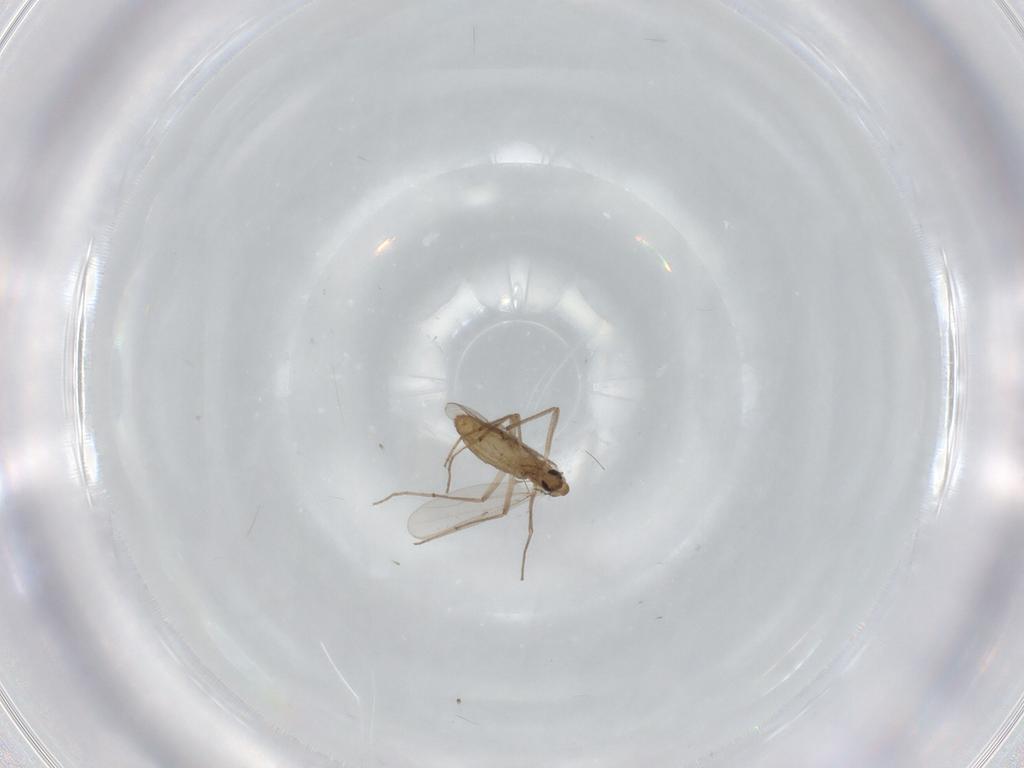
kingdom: Animalia
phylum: Arthropoda
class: Insecta
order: Diptera
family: Chironomidae
